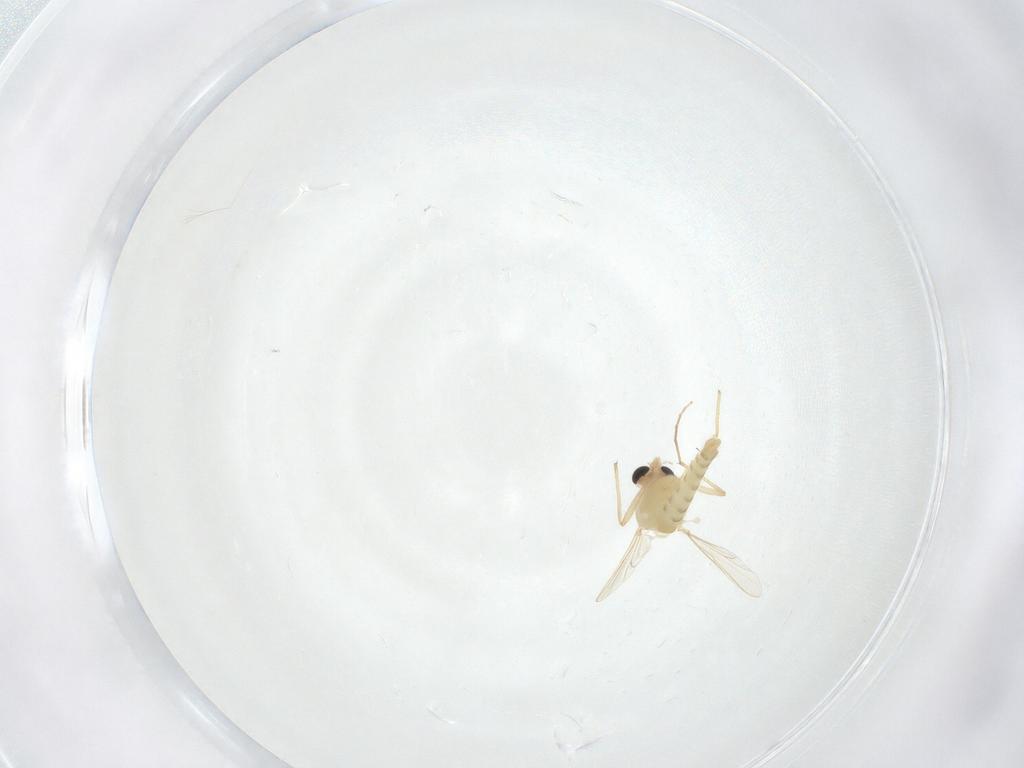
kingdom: Animalia
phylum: Arthropoda
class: Insecta
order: Diptera
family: Chironomidae
